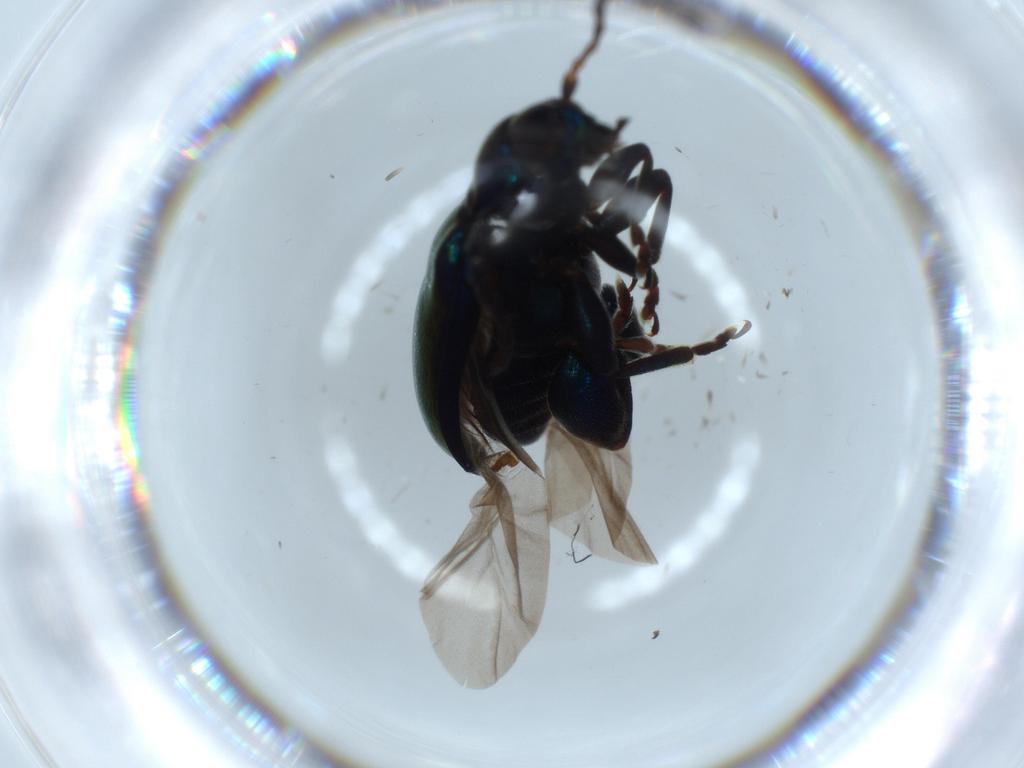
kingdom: Animalia
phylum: Arthropoda
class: Insecta
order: Coleoptera
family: Chrysomelidae
